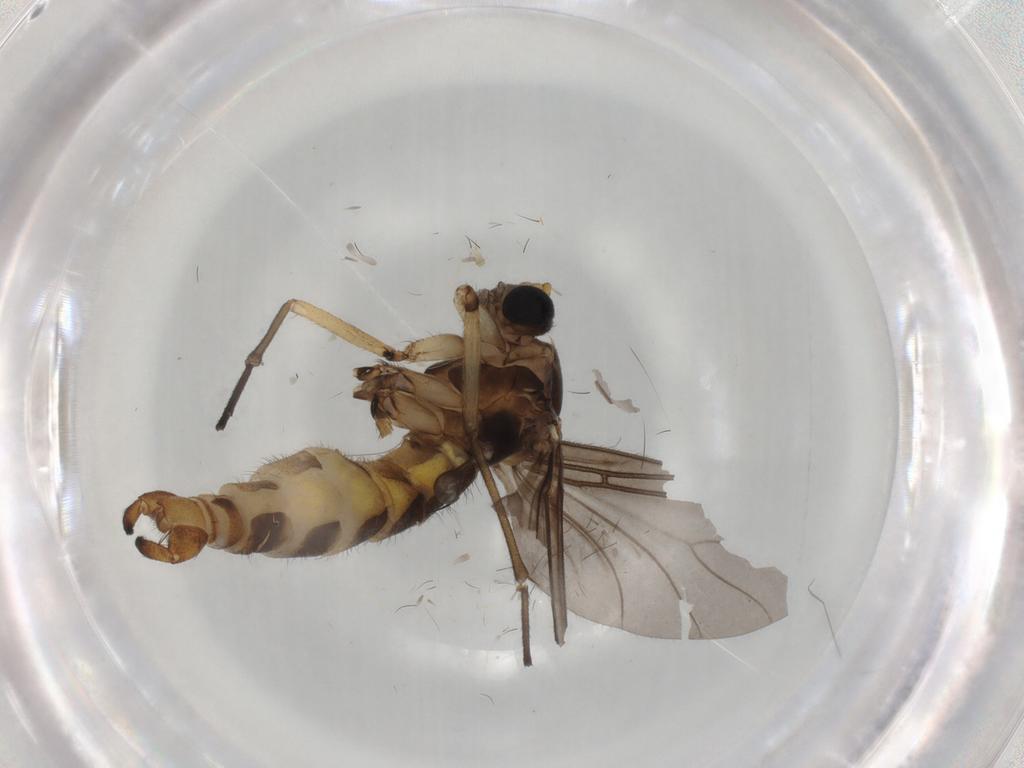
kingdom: Animalia
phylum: Arthropoda
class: Insecta
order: Diptera
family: Sciaridae
